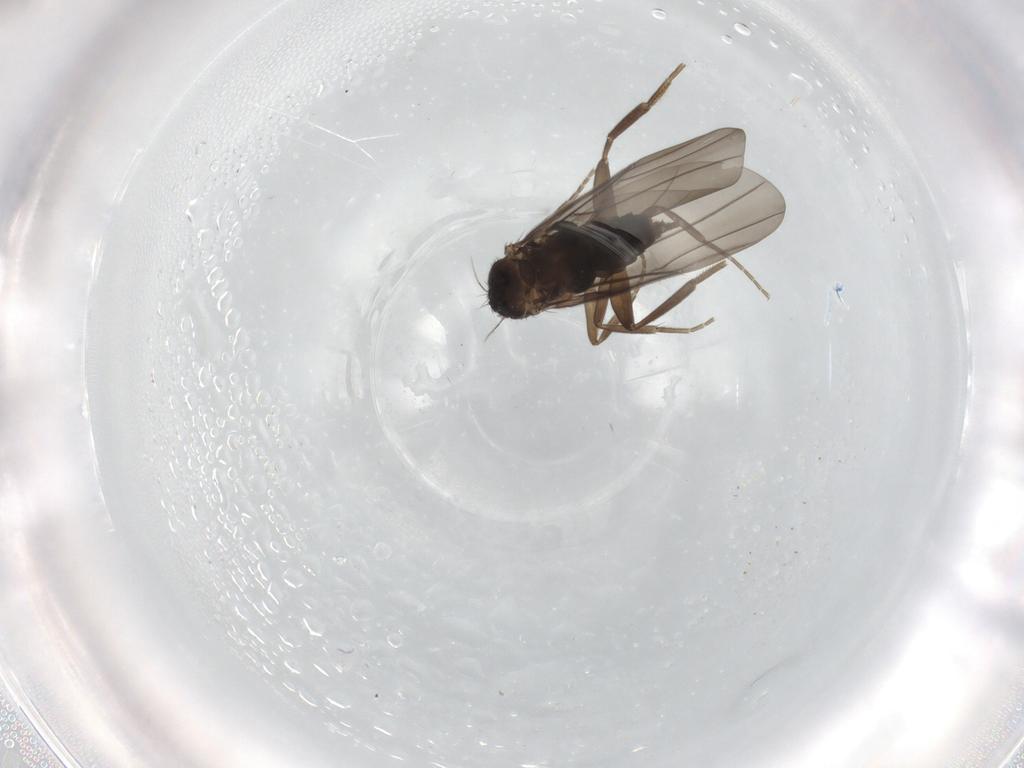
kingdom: Animalia
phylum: Arthropoda
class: Insecta
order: Diptera
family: Phoridae
